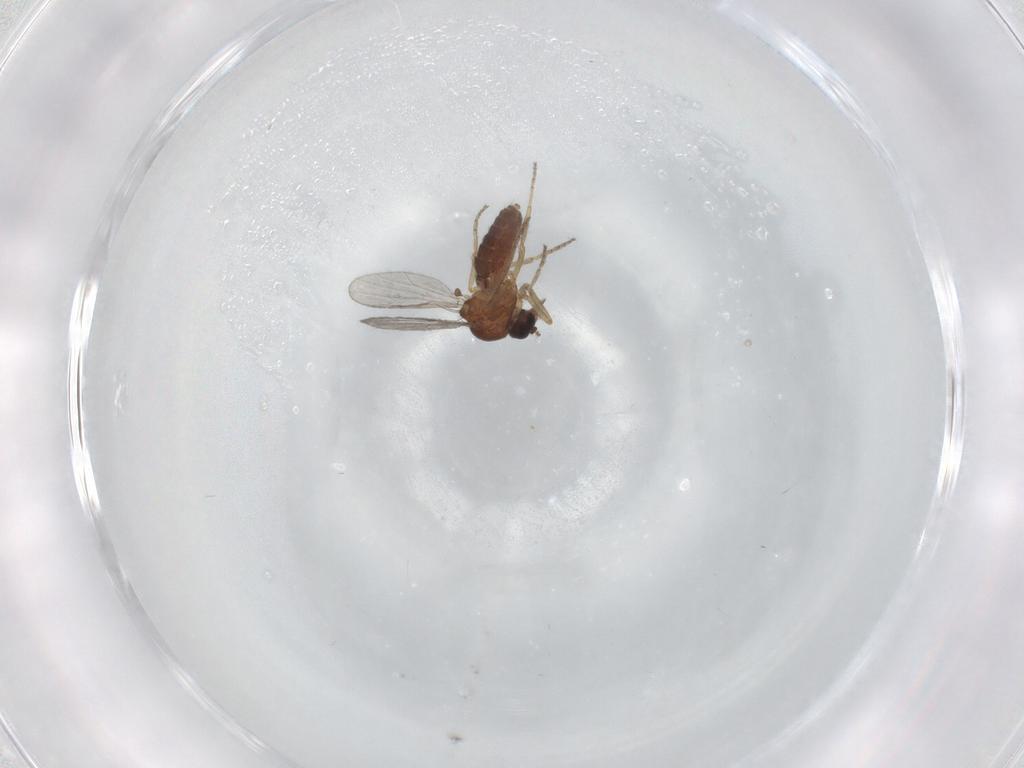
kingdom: Animalia
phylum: Arthropoda
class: Insecta
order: Diptera
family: Ceratopogonidae
